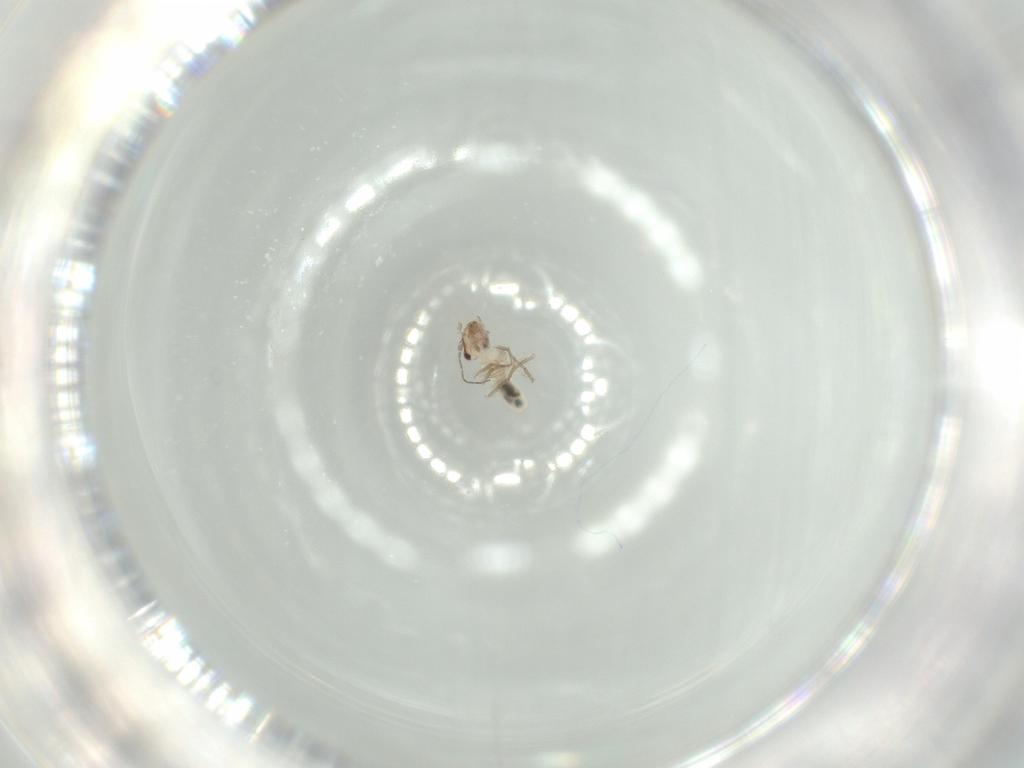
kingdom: Animalia
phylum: Arthropoda
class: Insecta
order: Psocodea
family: Lepidopsocidae
